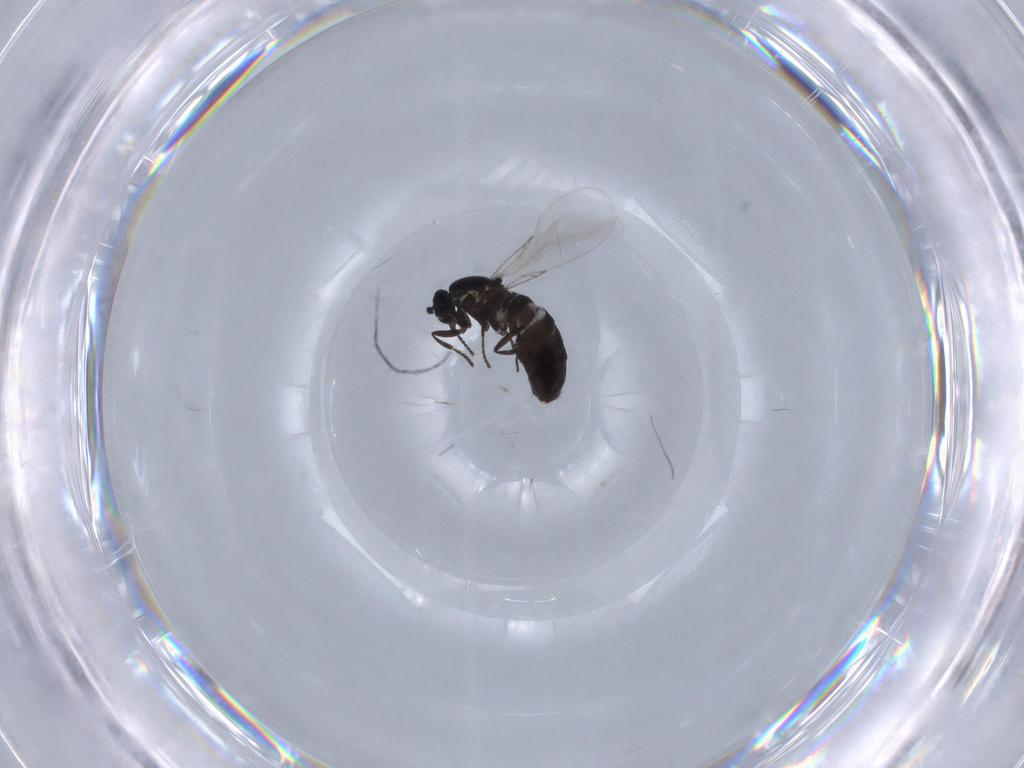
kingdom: Animalia
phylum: Arthropoda
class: Insecta
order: Diptera
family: Scatopsidae
